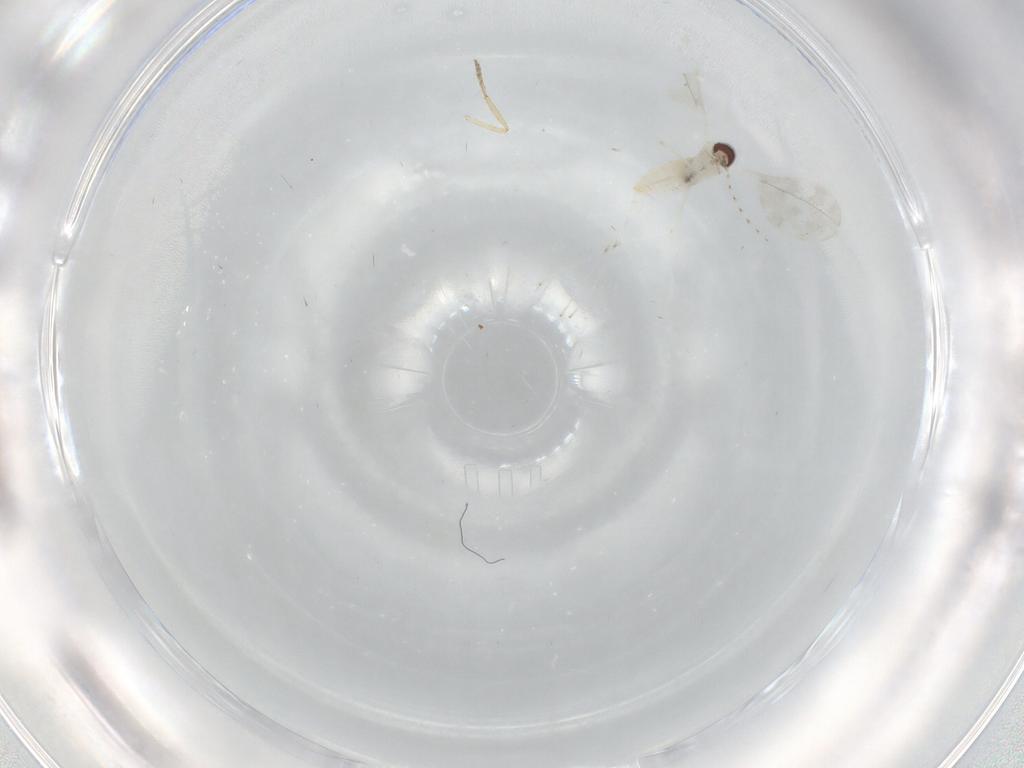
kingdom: Animalia
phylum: Arthropoda
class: Insecta
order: Diptera
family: Cecidomyiidae
